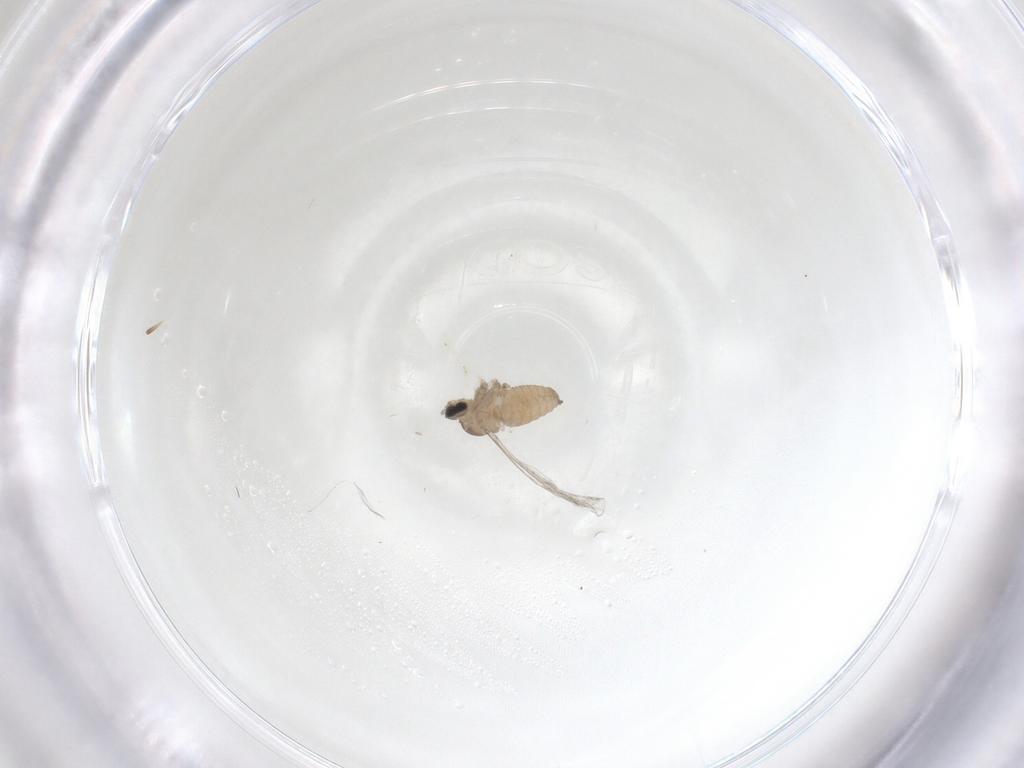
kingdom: Animalia
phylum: Arthropoda
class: Insecta
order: Diptera
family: Cecidomyiidae
